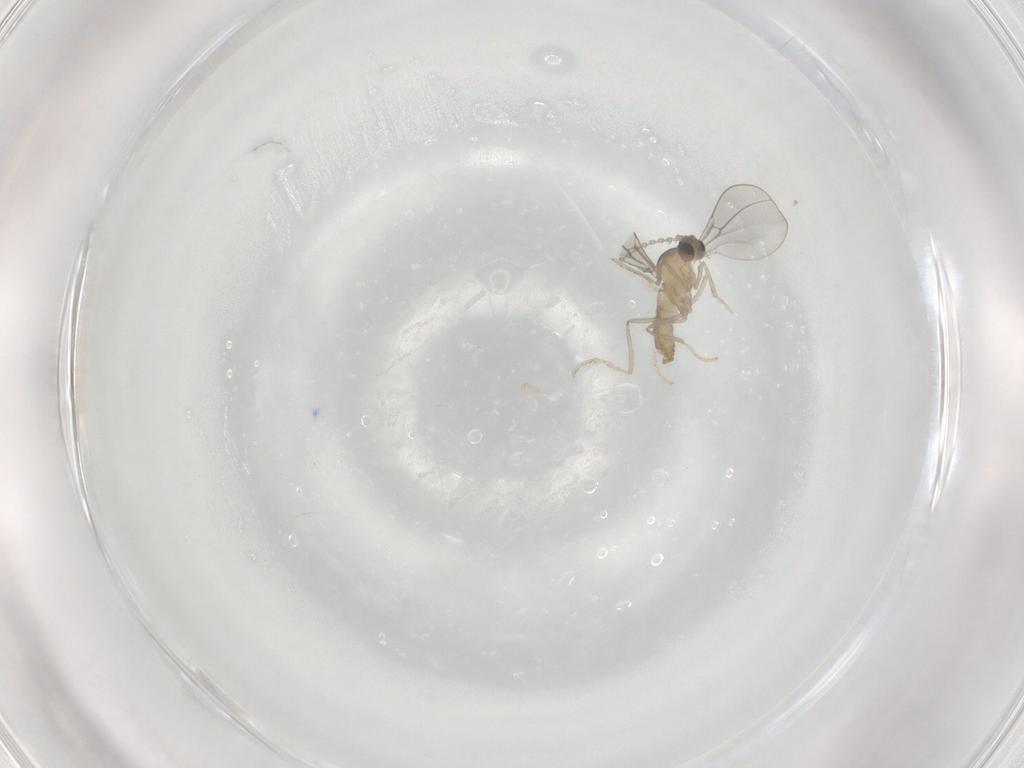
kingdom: Animalia
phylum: Arthropoda
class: Insecta
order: Diptera
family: Cecidomyiidae
